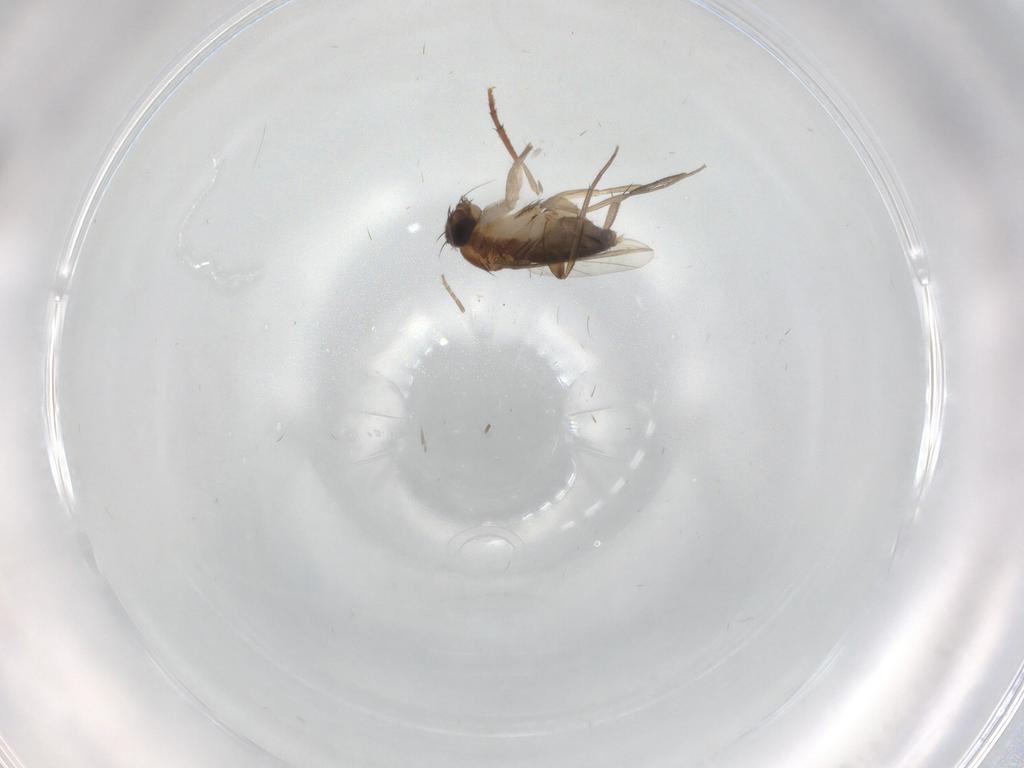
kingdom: Animalia
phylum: Arthropoda
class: Insecta
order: Diptera
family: Phoridae
